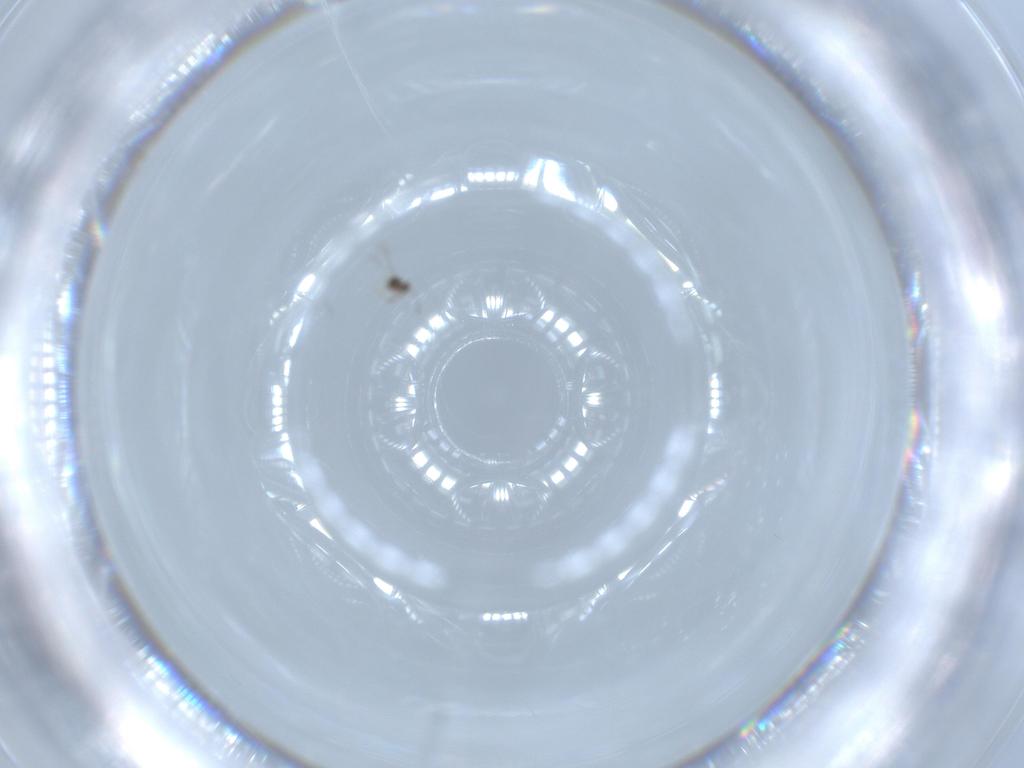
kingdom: Animalia
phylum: Arthropoda
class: Insecta
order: Diptera
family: Sciaridae
